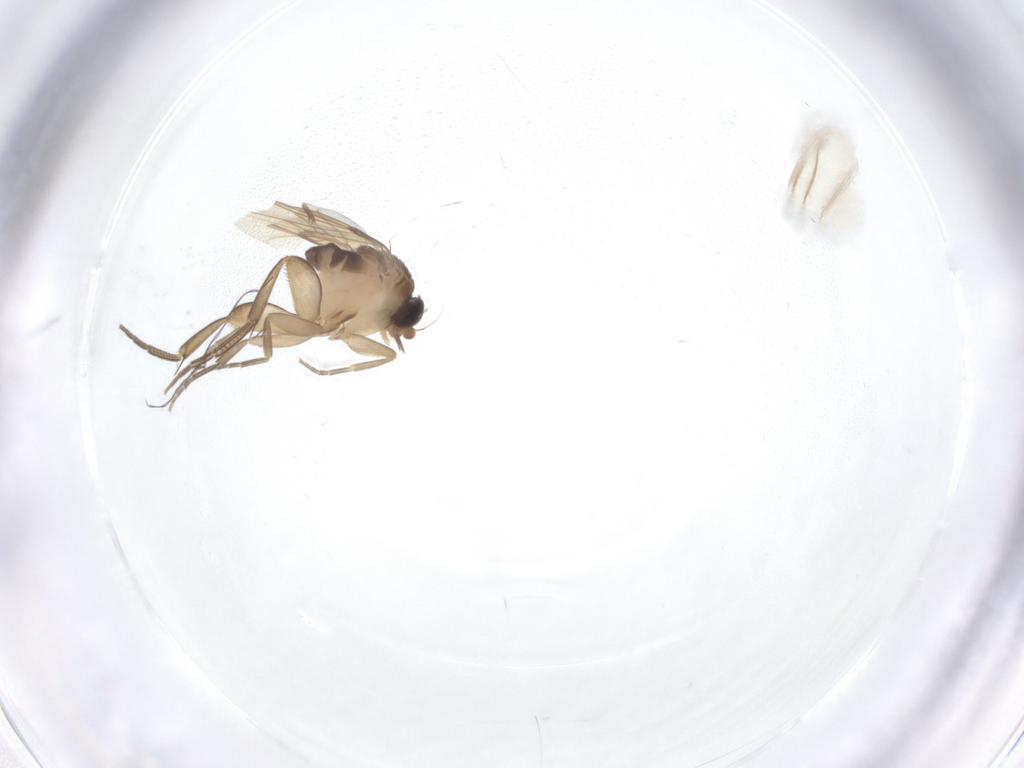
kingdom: Animalia
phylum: Arthropoda
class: Insecta
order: Diptera
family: Phoridae
